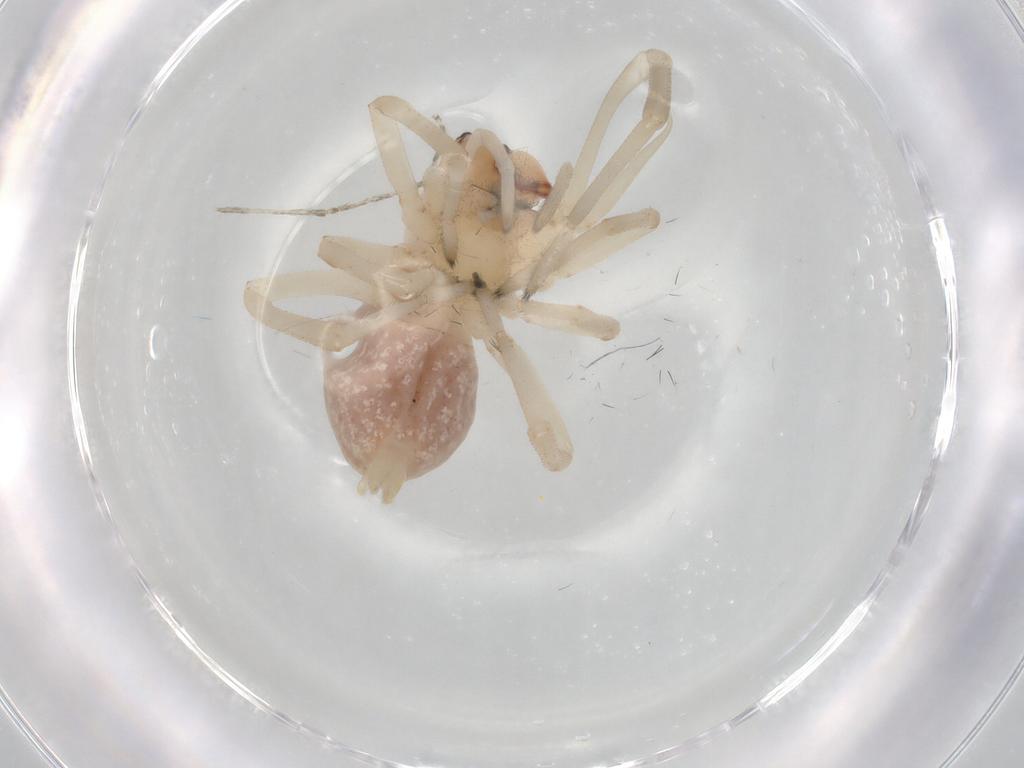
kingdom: Animalia
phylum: Arthropoda
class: Arachnida
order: Araneae
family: Cheiracanthiidae
